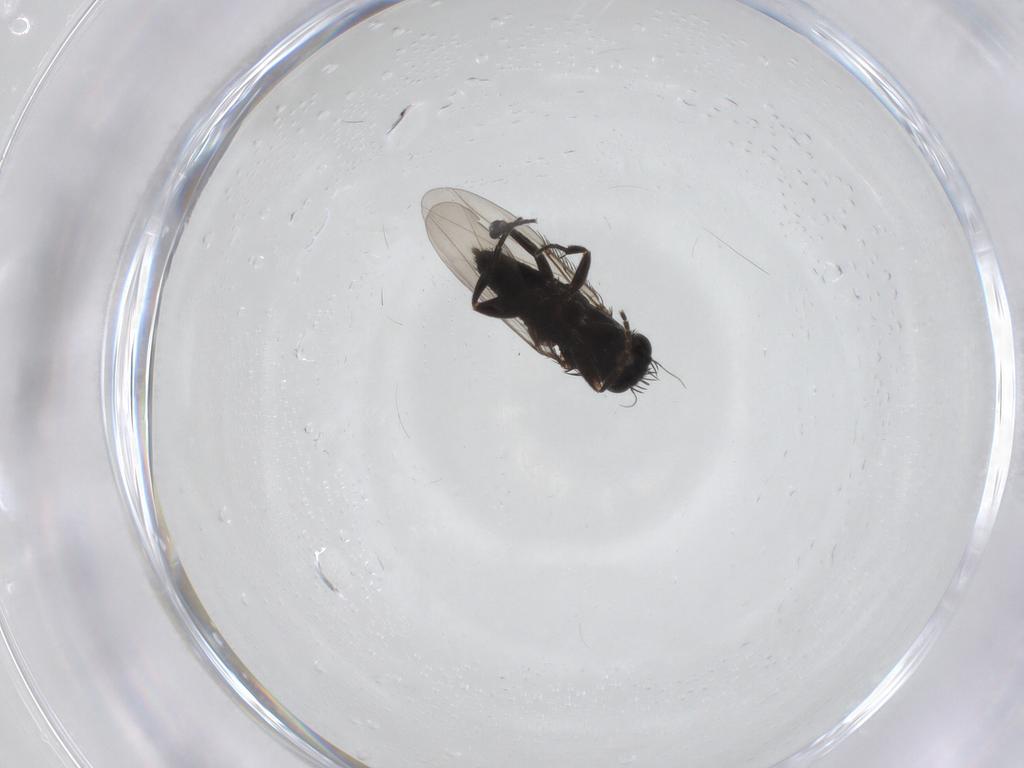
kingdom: Animalia
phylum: Arthropoda
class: Insecta
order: Diptera
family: Phoridae
